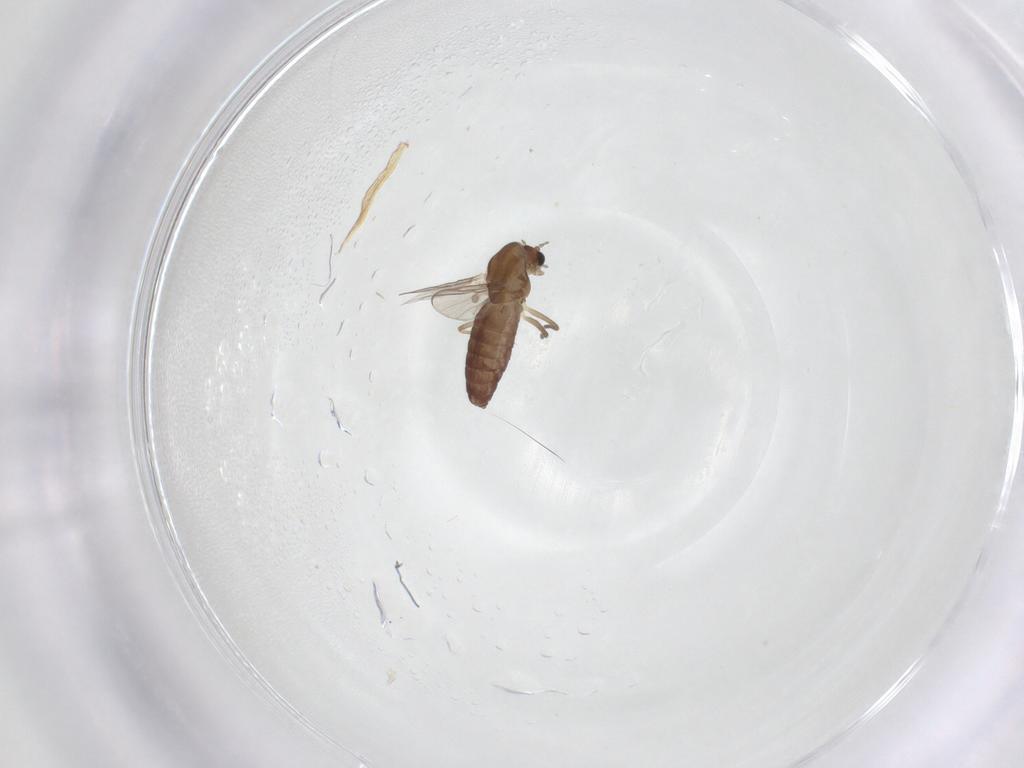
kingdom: Animalia
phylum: Arthropoda
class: Insecta
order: Diptera
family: Chironomidae
